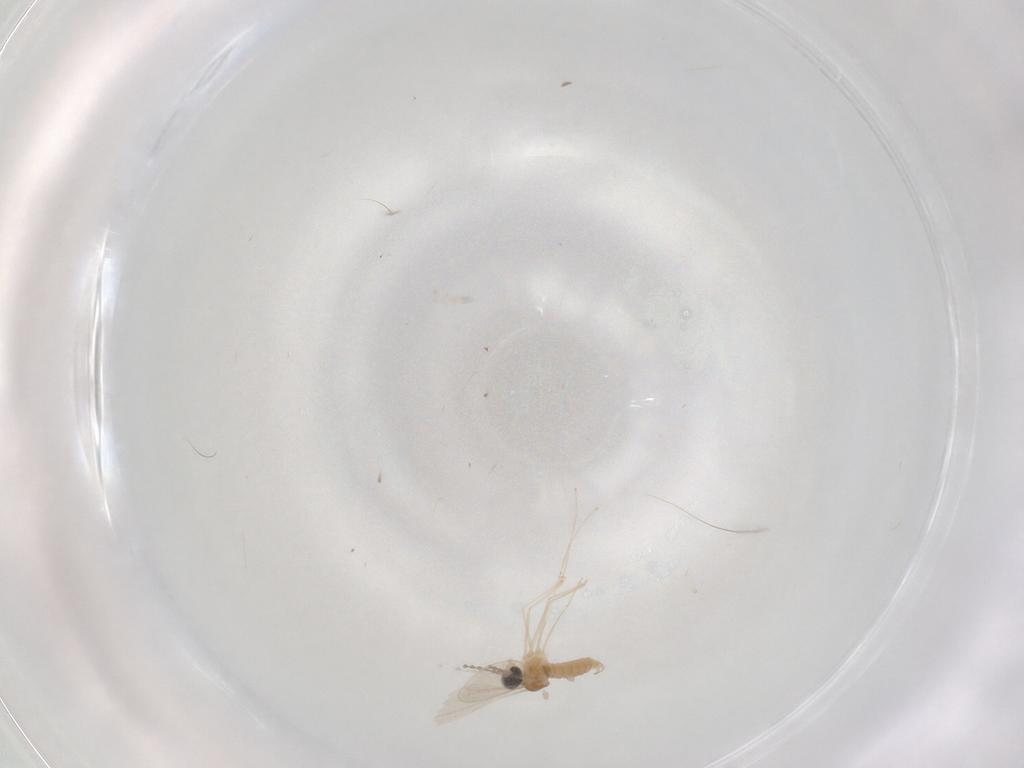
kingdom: Animalia
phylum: Arthropoda
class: Insecta
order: Diptera
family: Cecidomyiidae
